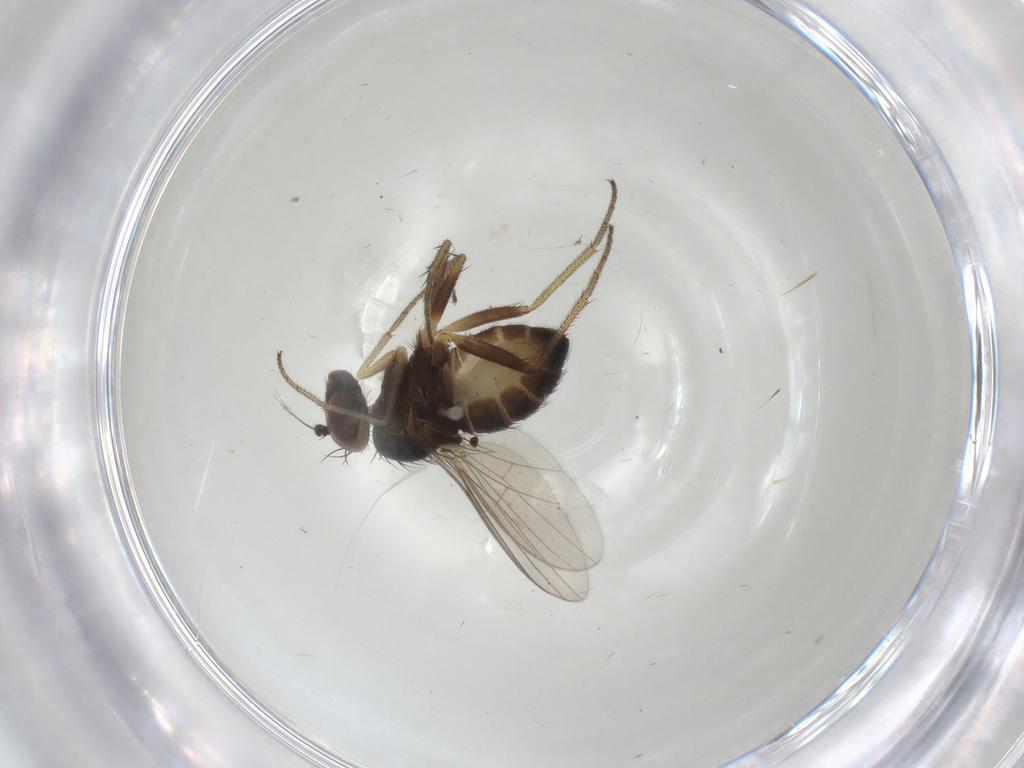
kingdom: Animalia
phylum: Arthropoda
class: Insecta
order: Diptera
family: Dolichopodidae
